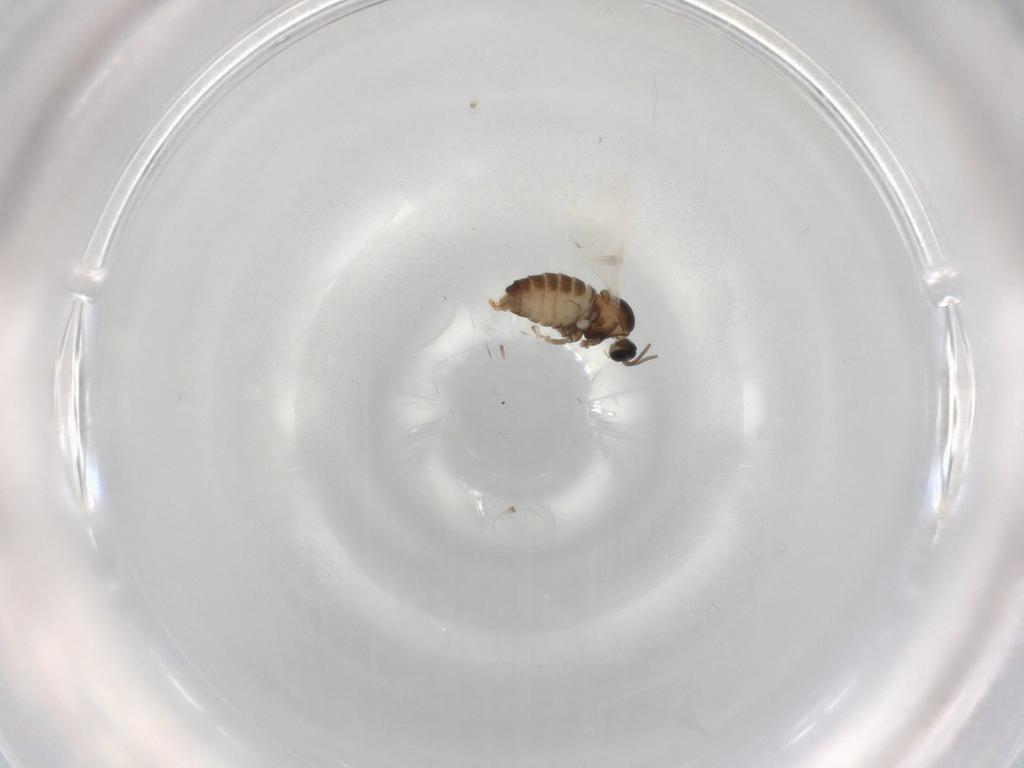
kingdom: Animalia
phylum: Arthropoda
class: Insecta
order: Diptera
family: Cecidomyiidae
